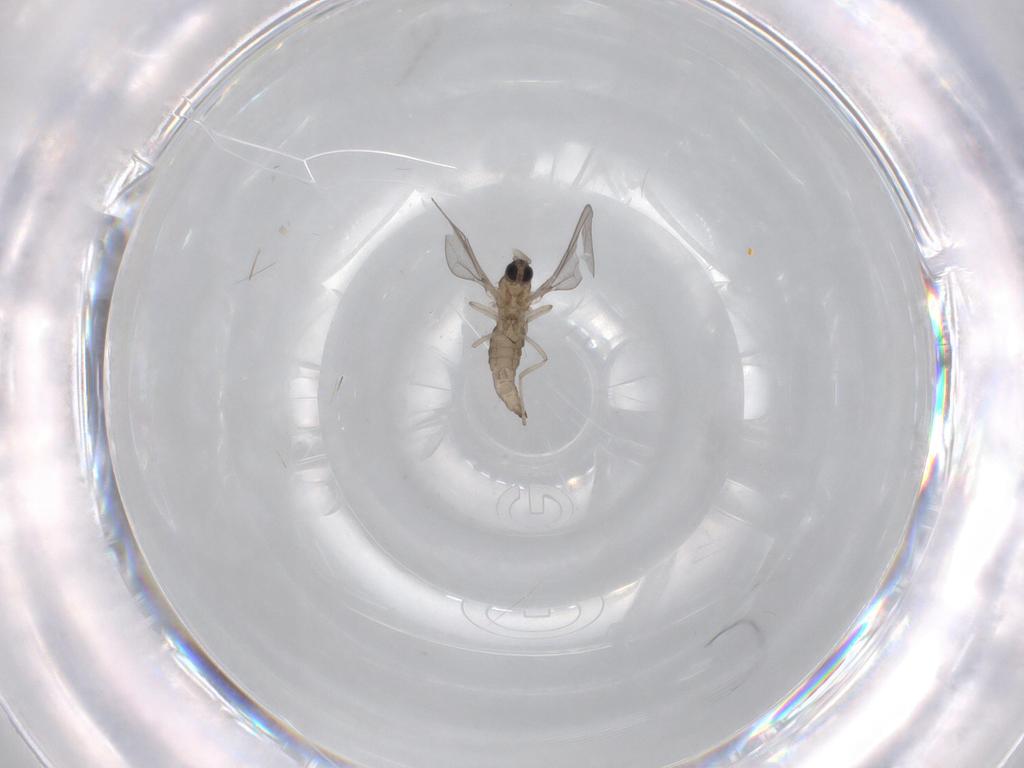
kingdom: Animalia
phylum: Arthropoda
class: Insecta
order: Diptera
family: Cecidomyiidae
